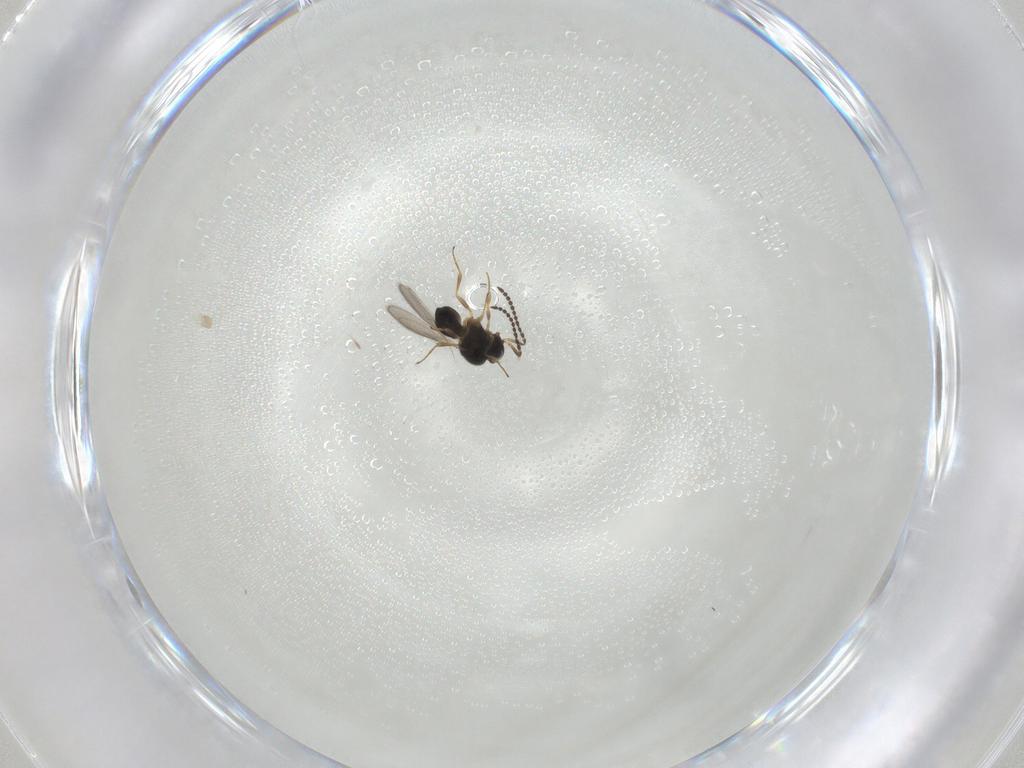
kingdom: Animalia
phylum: Arthropoda
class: Insecta
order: Hymenoptera
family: Scelionidae
